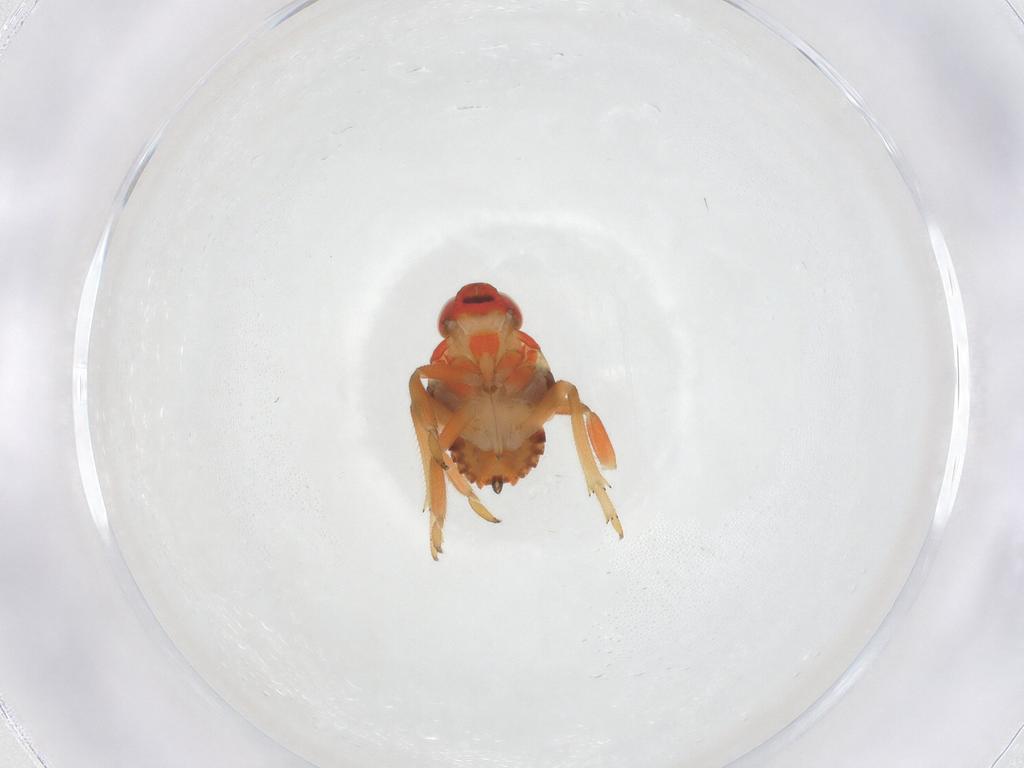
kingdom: Animalia
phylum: Arthropoda
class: Insecta
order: Hemiptera
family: Issidae
